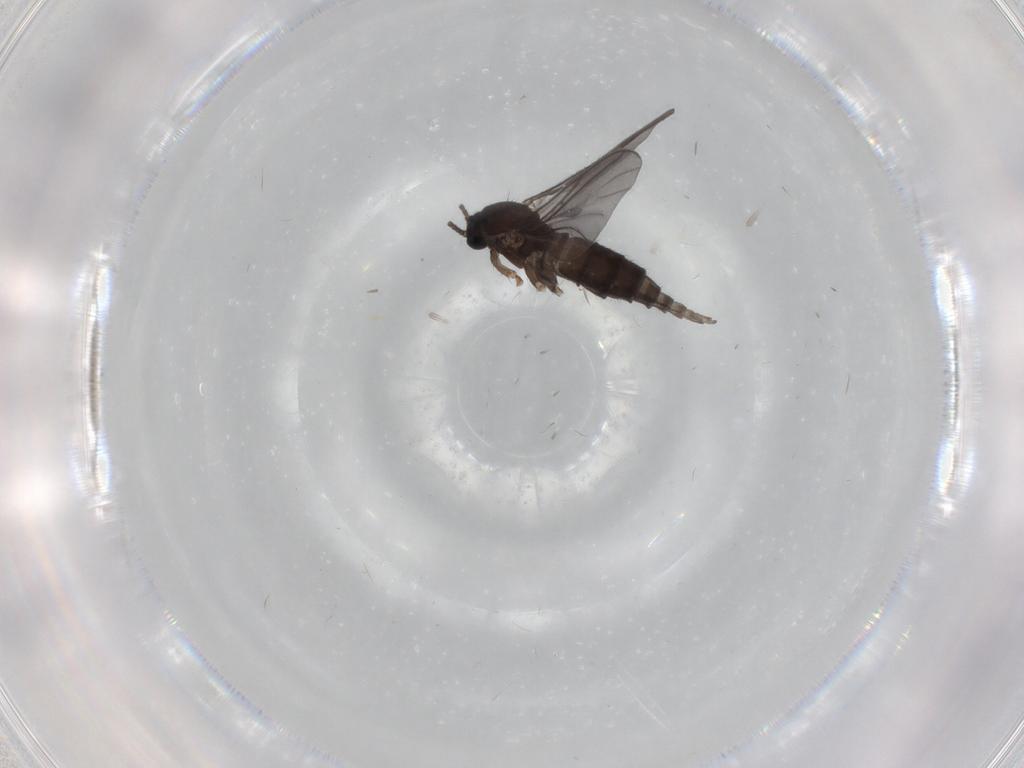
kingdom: Animalia
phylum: Arthropoda
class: Insecta
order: Diptera
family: Sciaridae
